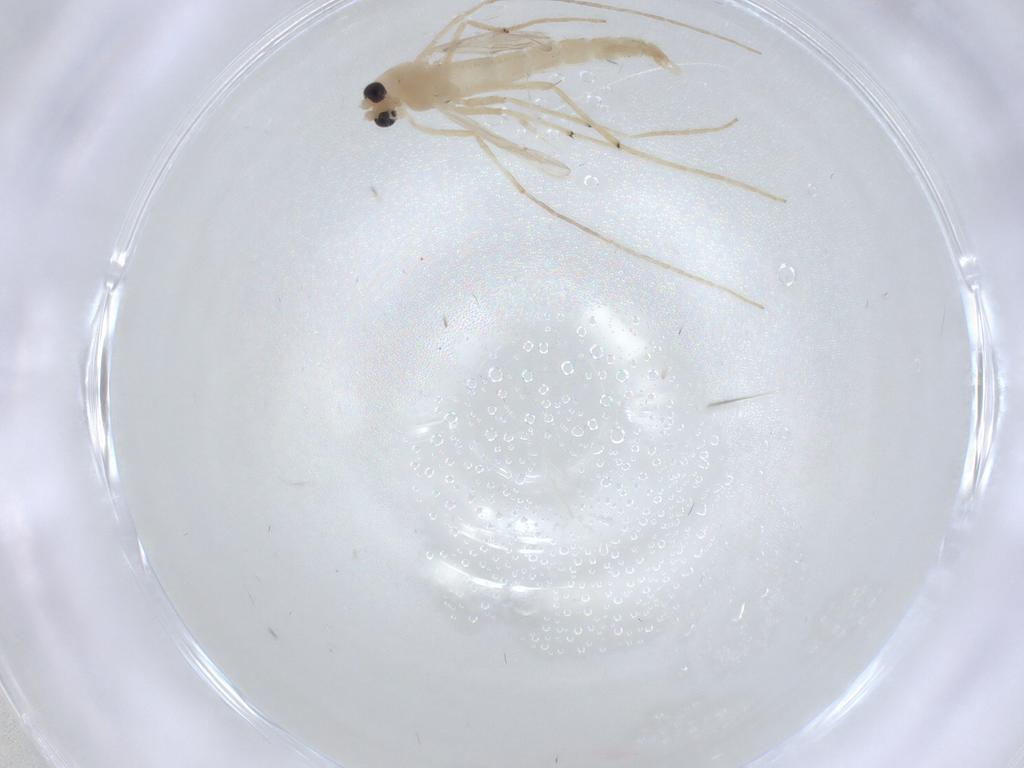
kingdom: Animalia
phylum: Arthropoda
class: Insecta
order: Diptera
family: Chironomidae
